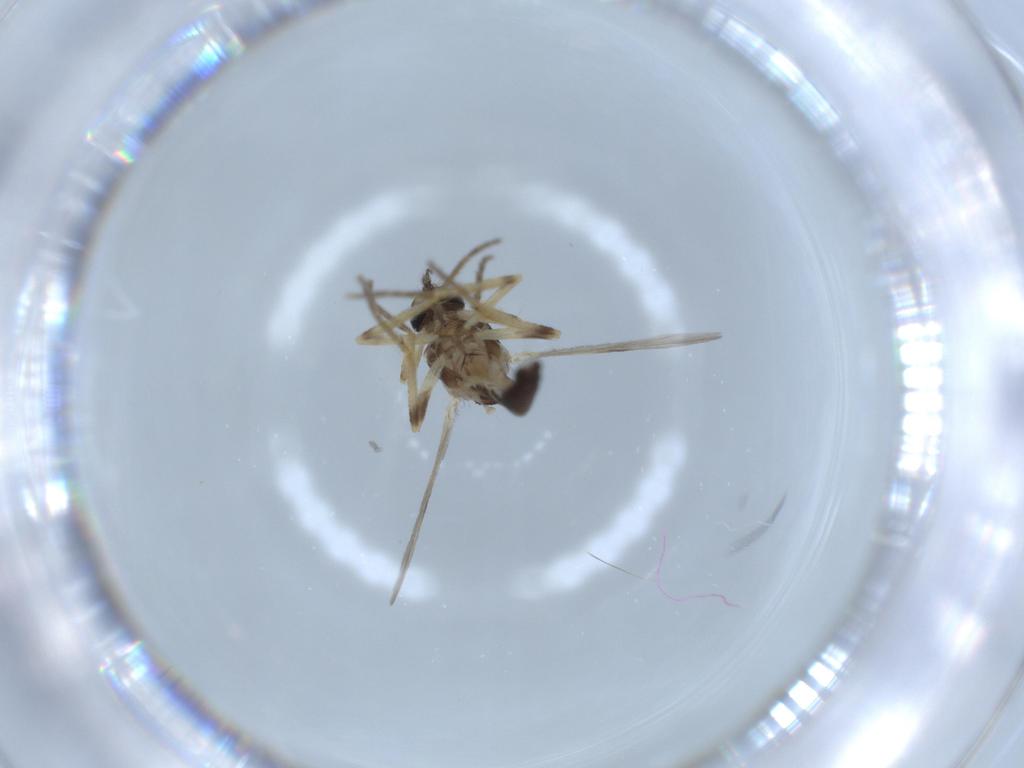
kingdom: Animalia
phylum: Arthropoda
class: Insecta
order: Diptera
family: Ceratopogonidae
